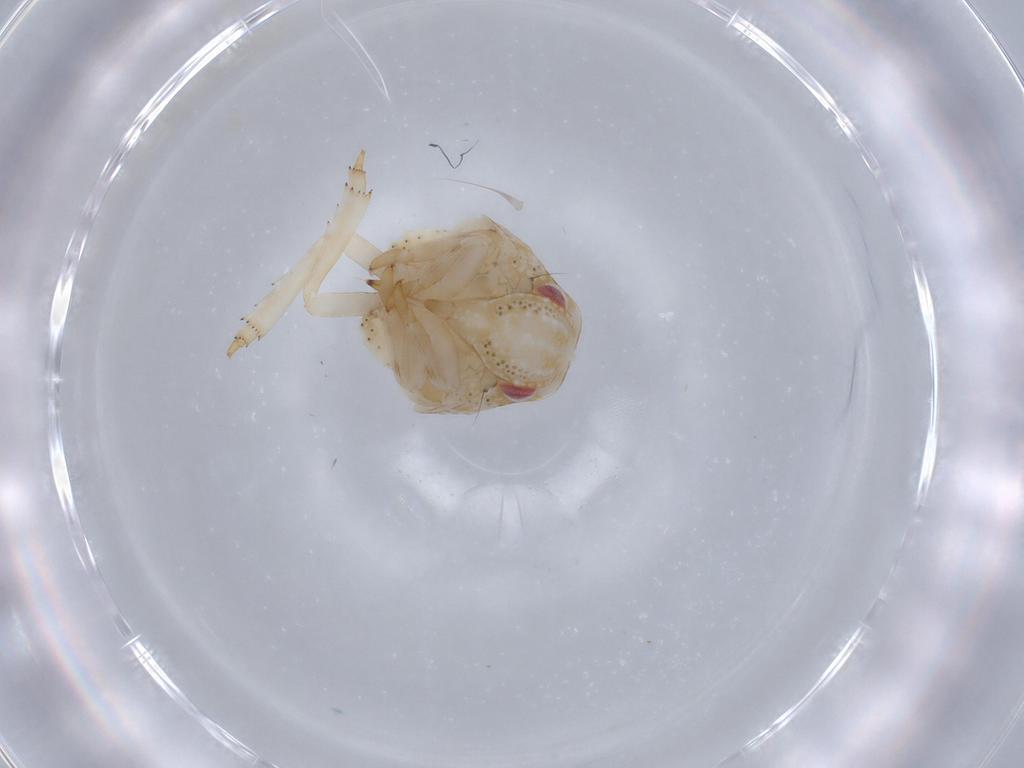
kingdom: Animalia
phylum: Arthropoda
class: Insecta
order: Hemiptera
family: Acanaloniidae
